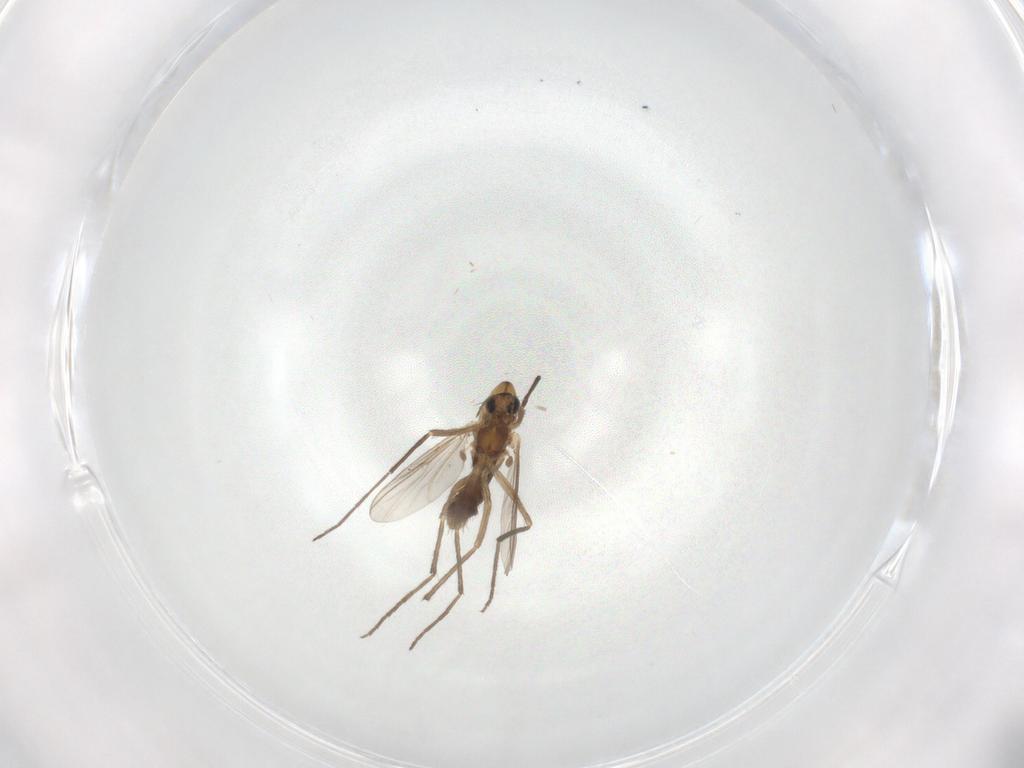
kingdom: Animalia
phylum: Arthropoda
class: Insecta
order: Diptera
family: Chironomidae
